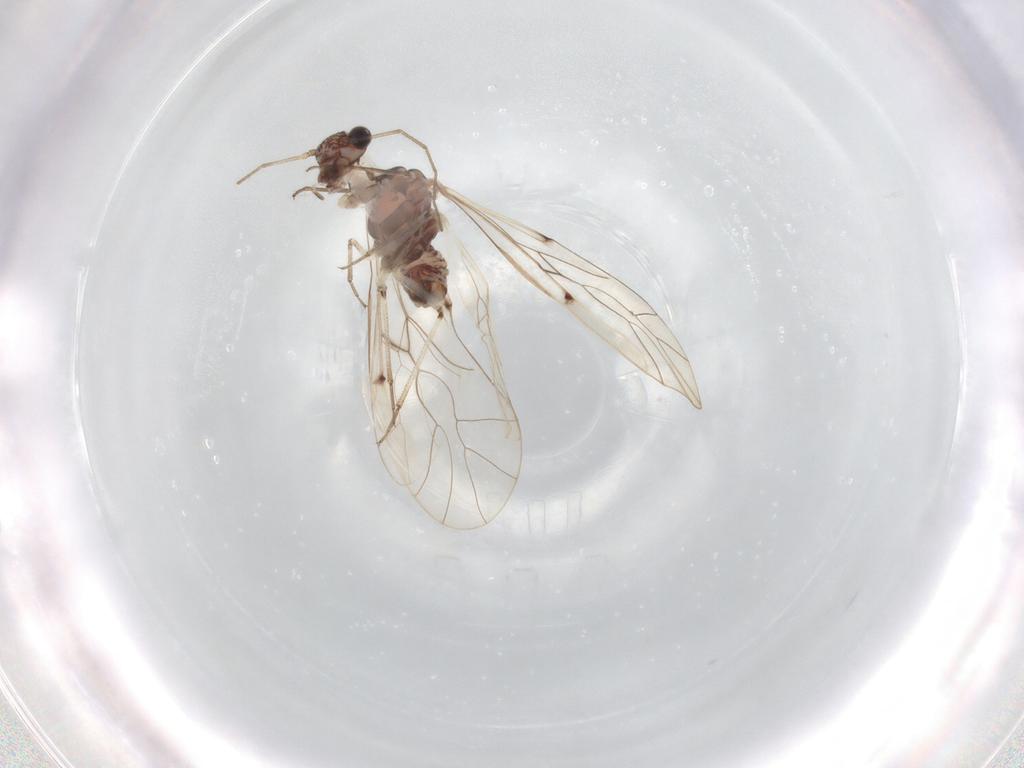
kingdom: Animalia
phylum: Arthropoda
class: Insecta
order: Psocodea
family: Peripsocidae
